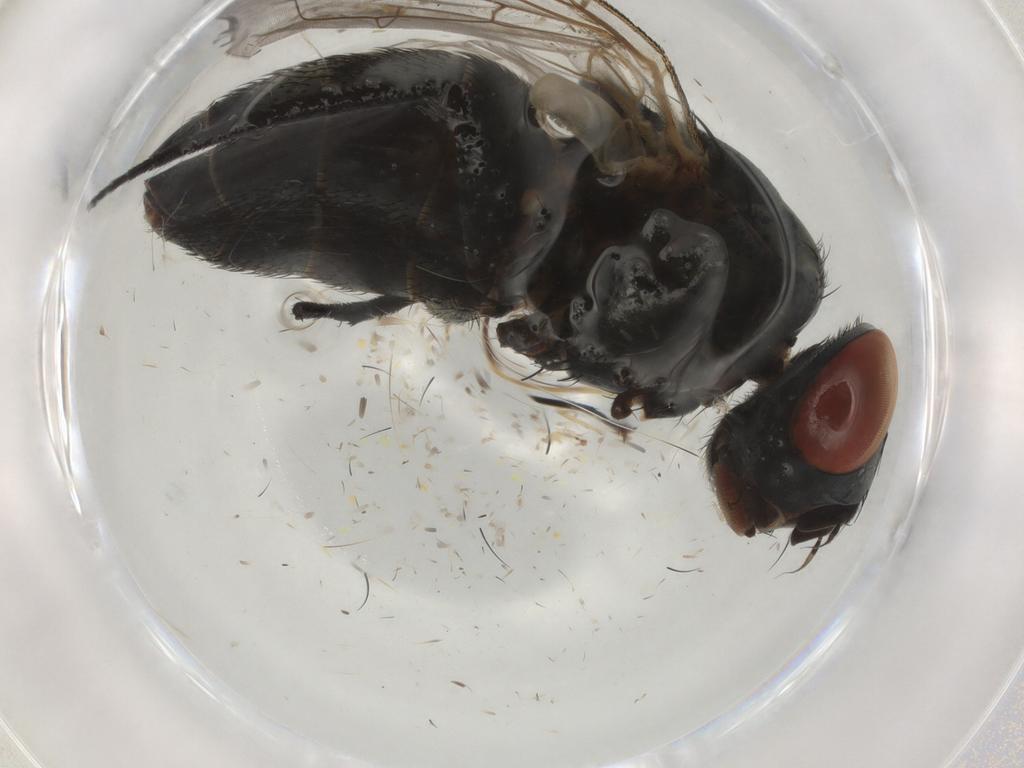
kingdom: Animalia
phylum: Arthropoda
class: Insecta
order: Diptera
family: Sarcophagidae
